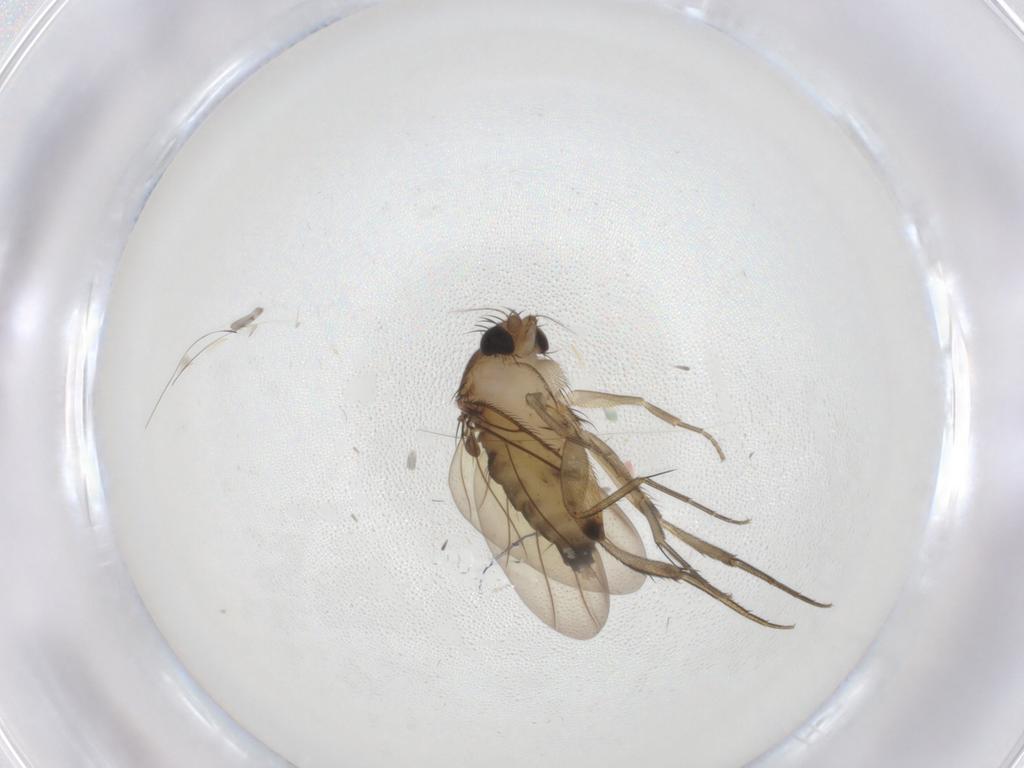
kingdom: Animalia
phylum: Arthropoda
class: Insecta
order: Diptera
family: Phoridae
